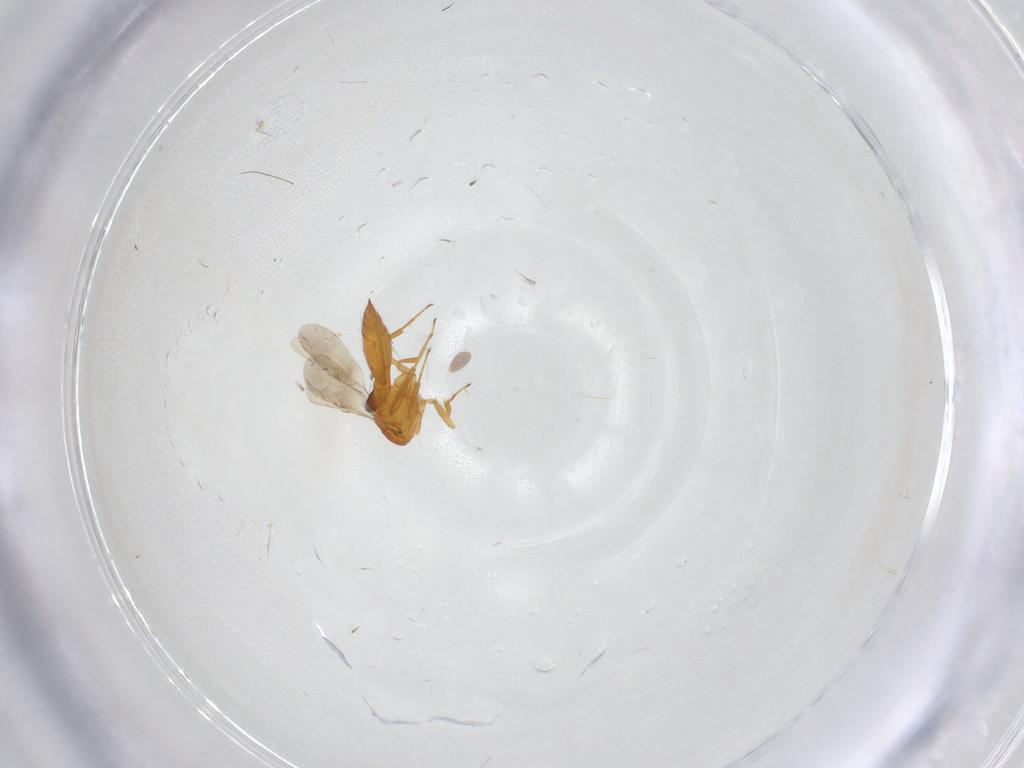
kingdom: Animalia
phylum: Arthropoda
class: Insecta
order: Hymenoptera
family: Scelionidae
